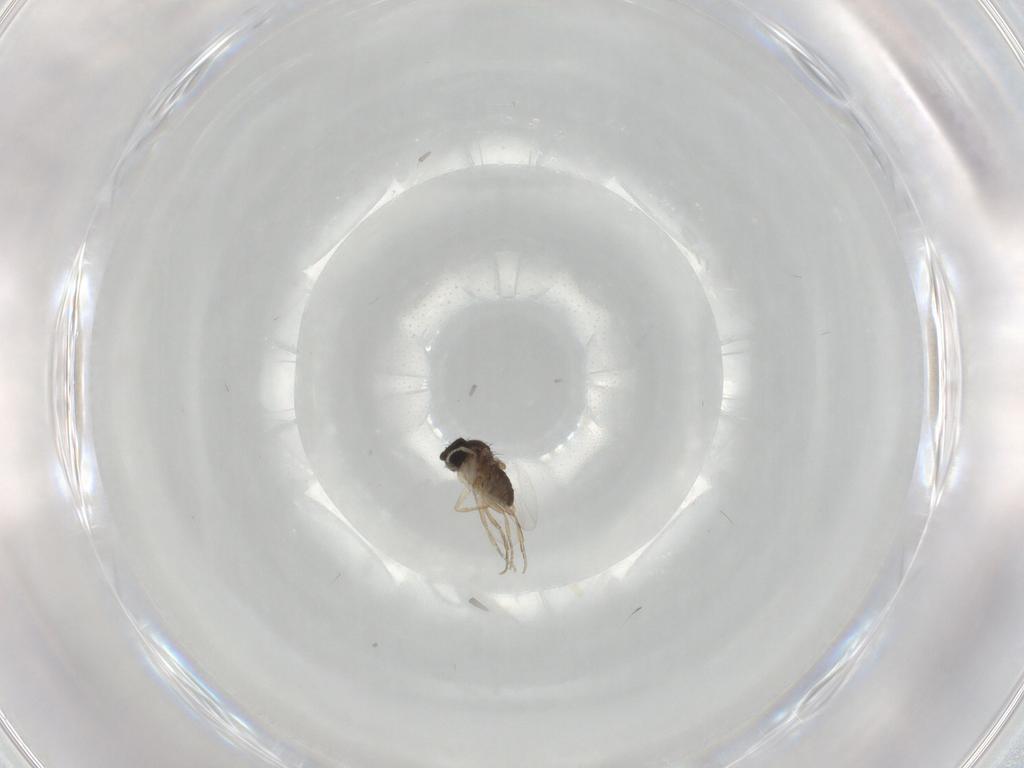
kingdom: Animalia
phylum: Arthropoda
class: Insecta
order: Diptera
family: Phoridae
